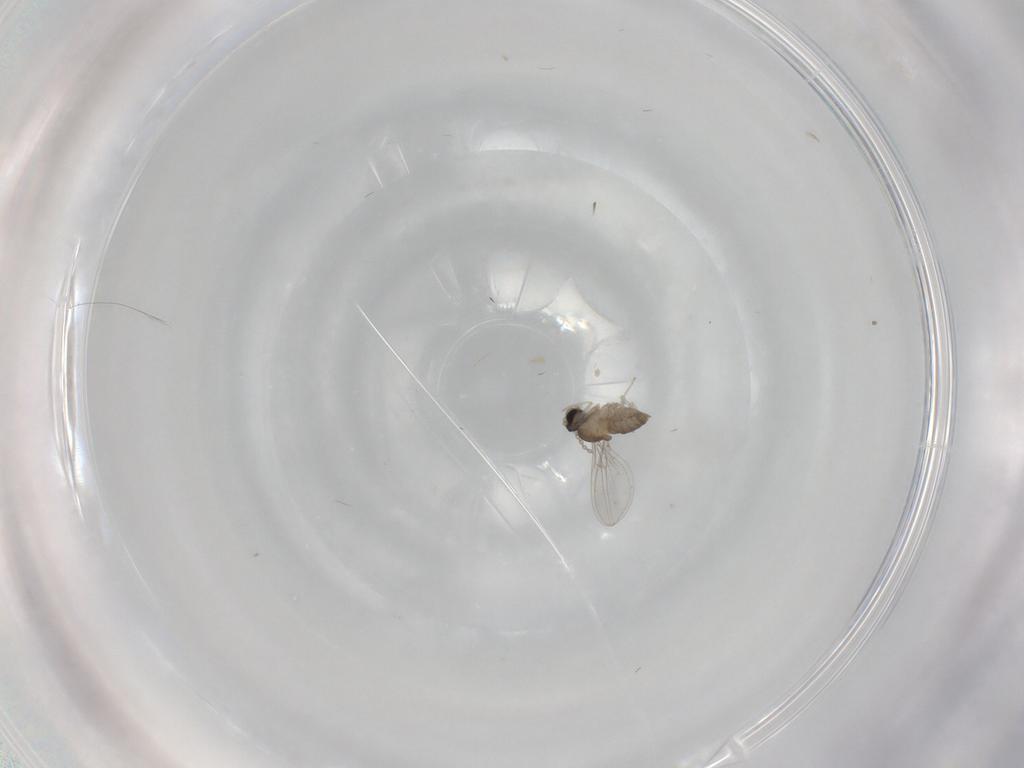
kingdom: Animalia
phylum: Arthropoda
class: Insecta
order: Diptera
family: Cecidomyiidae
